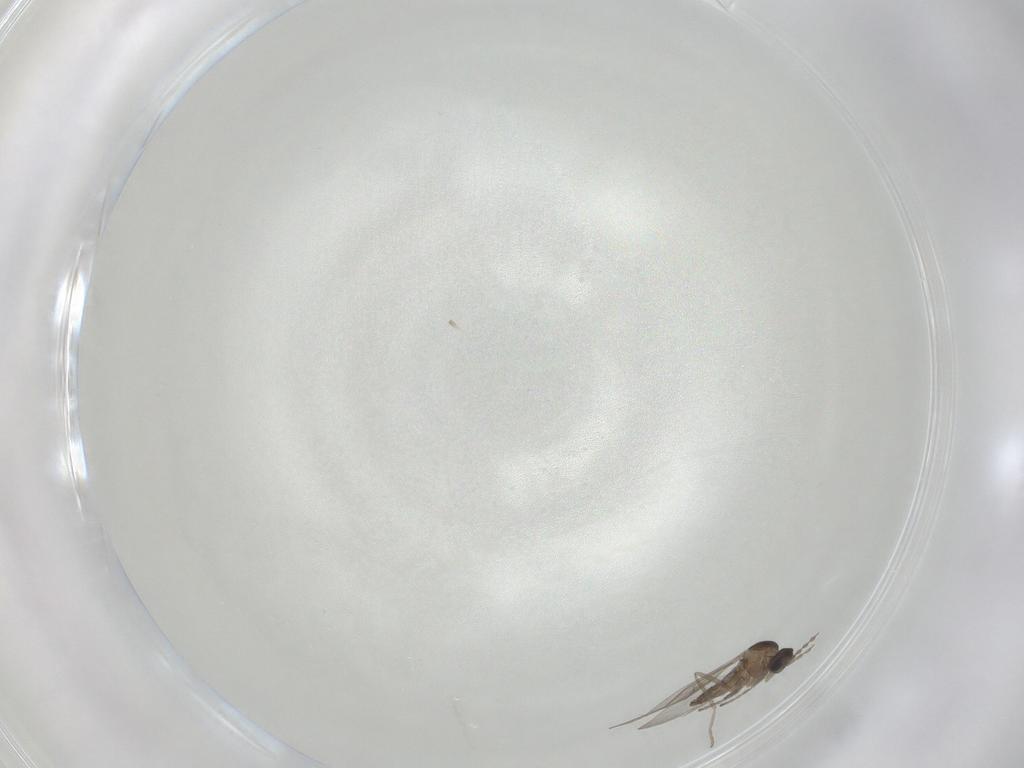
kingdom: Animalia
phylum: Arthropoda
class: Insecta
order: Diptera
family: Cecidomyiidae
